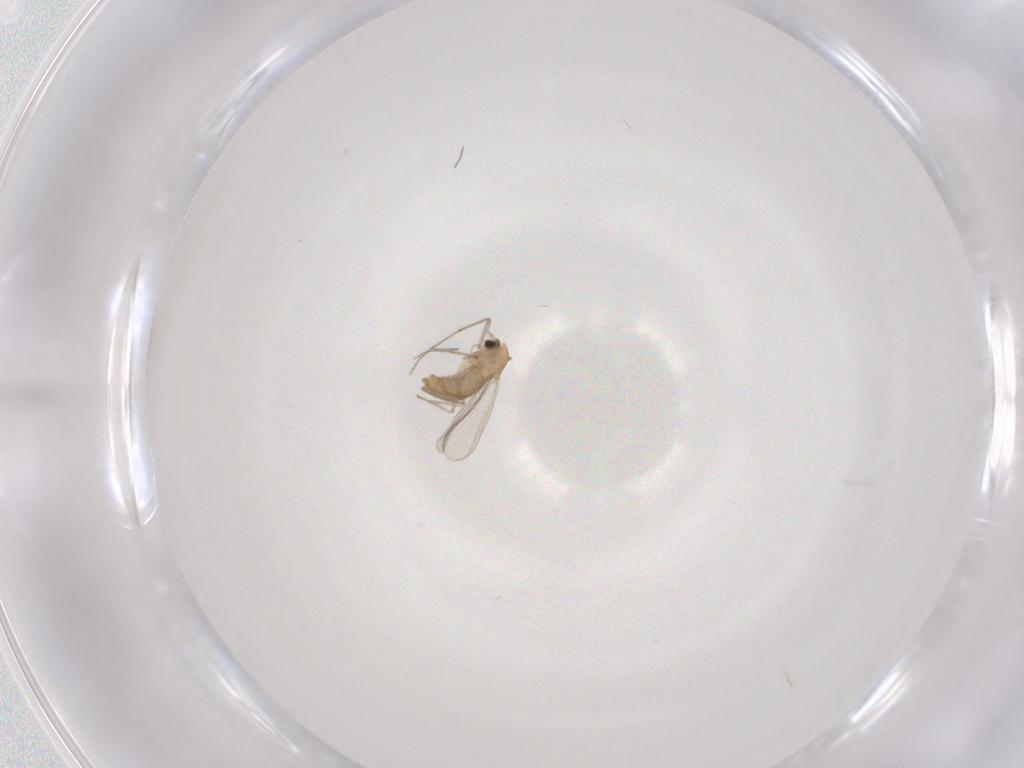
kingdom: Animalia
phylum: Arthropoda
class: Insecta
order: Diptera
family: Chironomidae
